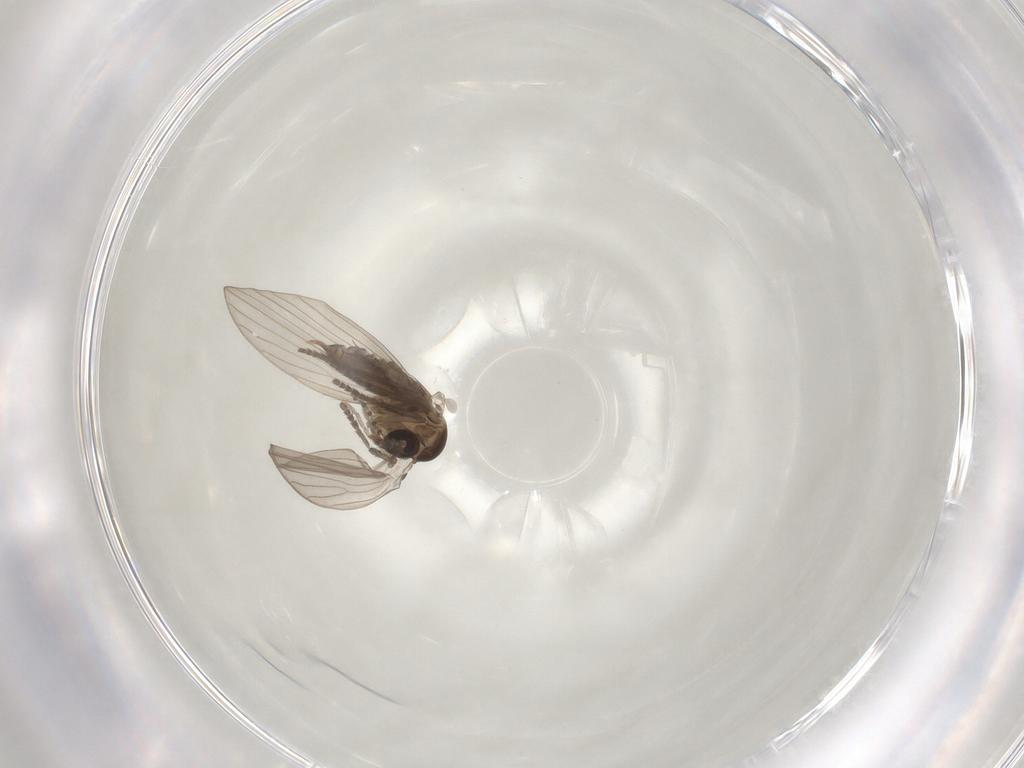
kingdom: Animalia
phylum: Arthropoda
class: Insecta
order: Diptera
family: Psychodidae
